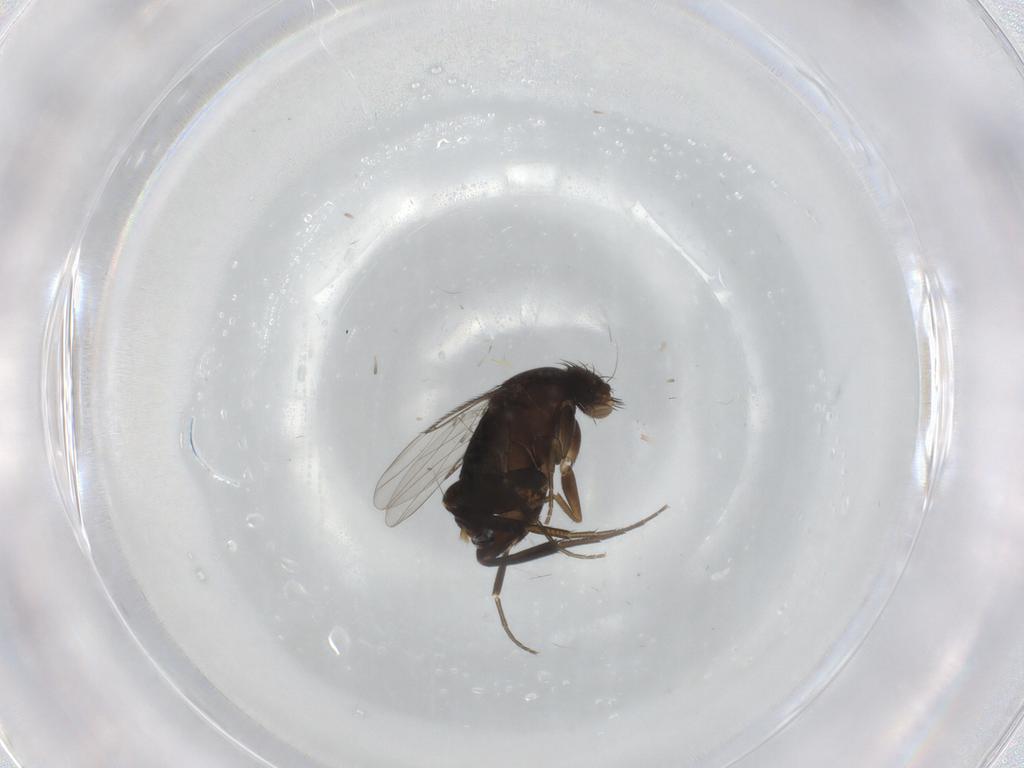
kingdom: Animalia
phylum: Arthropoda
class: Insecta
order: Diptera
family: Phoridae
